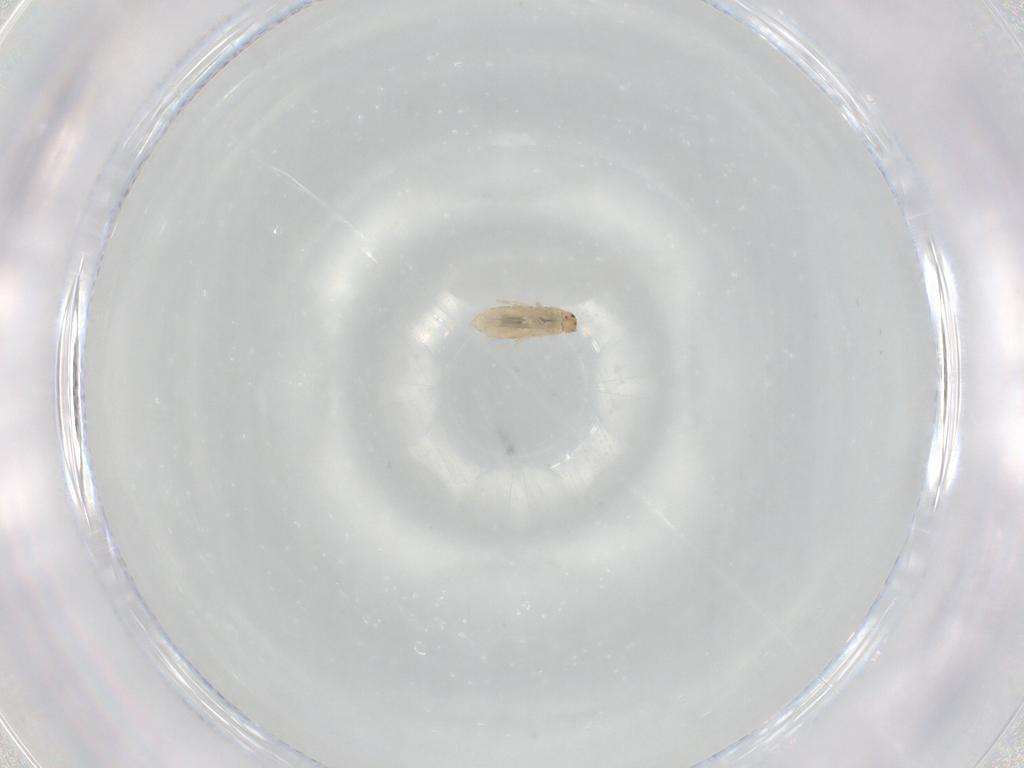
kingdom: Animalia
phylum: Arthropoda
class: Collembola
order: Entomobryomorpha
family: Entomobryidae
